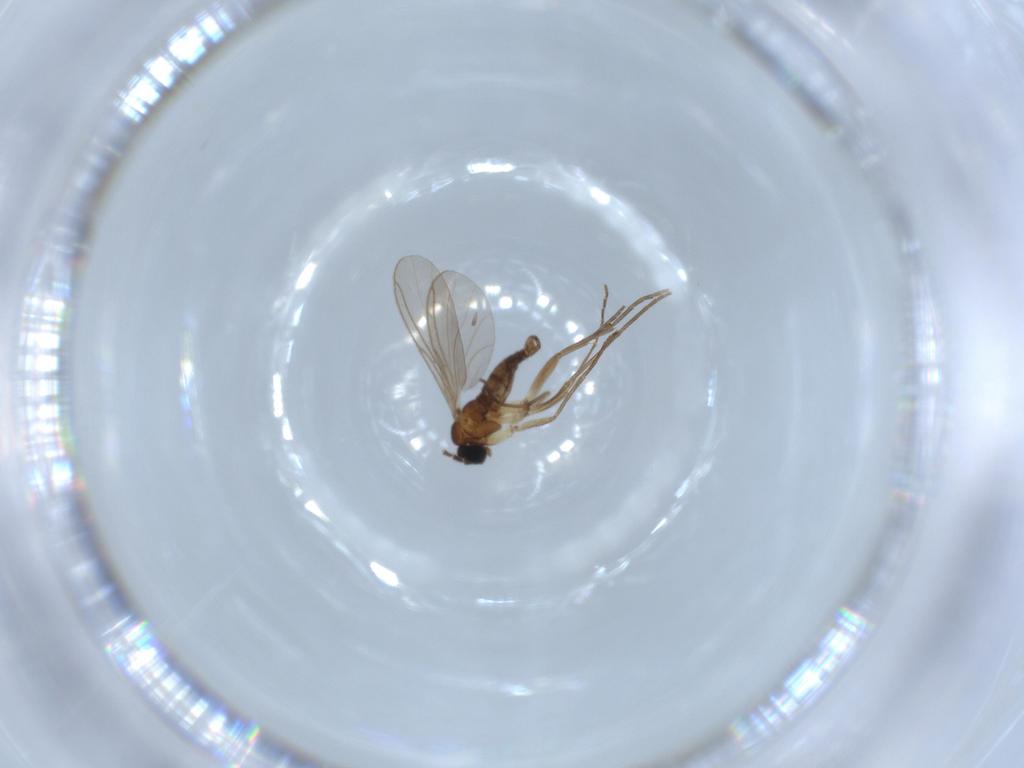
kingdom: Animalia
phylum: Arthropoda
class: Insecta
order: Diptera
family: Sciaridae
